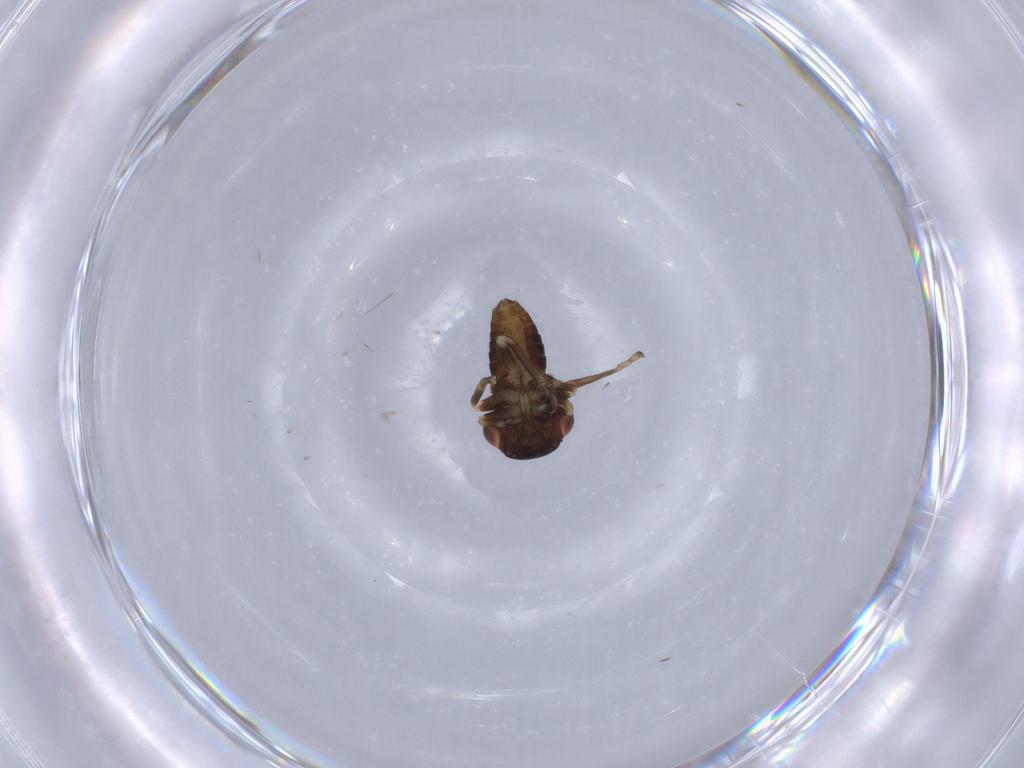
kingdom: Animalia
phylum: Arthropoda
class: Insecta
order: Hemiptera
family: Cicadellidae
